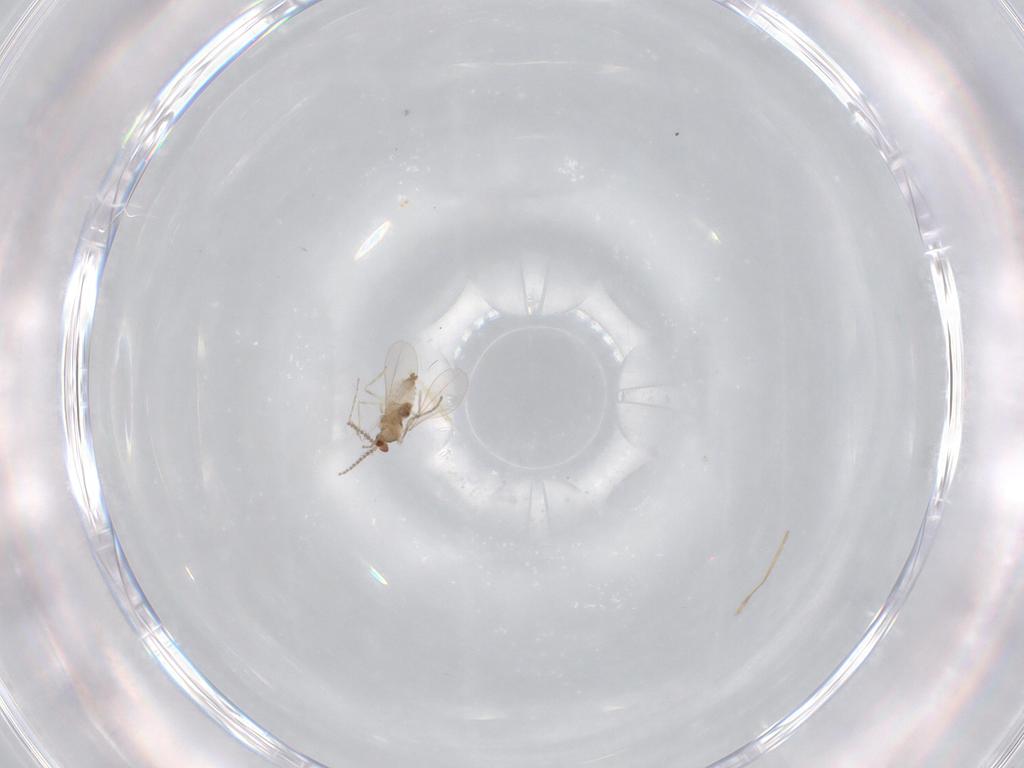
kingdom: Animalia
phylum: Arthropoda
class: Insecta
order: Diptera
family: Cecidomyiidae
